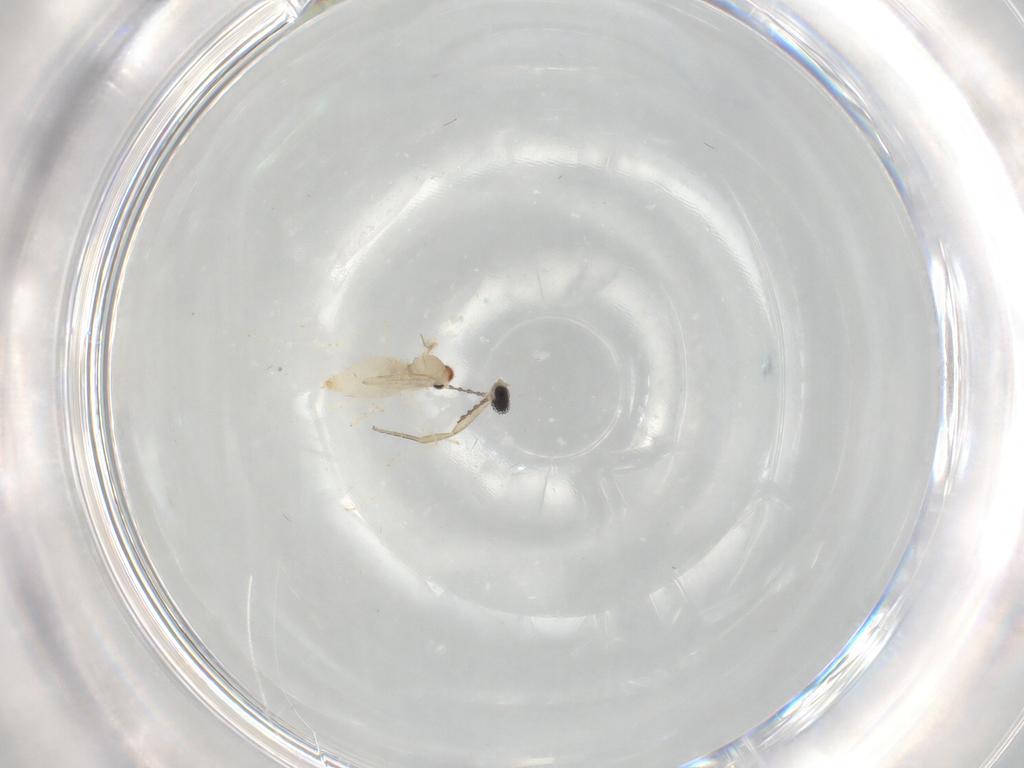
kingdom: Animalia
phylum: Arthropoda
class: Insecta
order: Diptera
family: Cecidomyiidae
